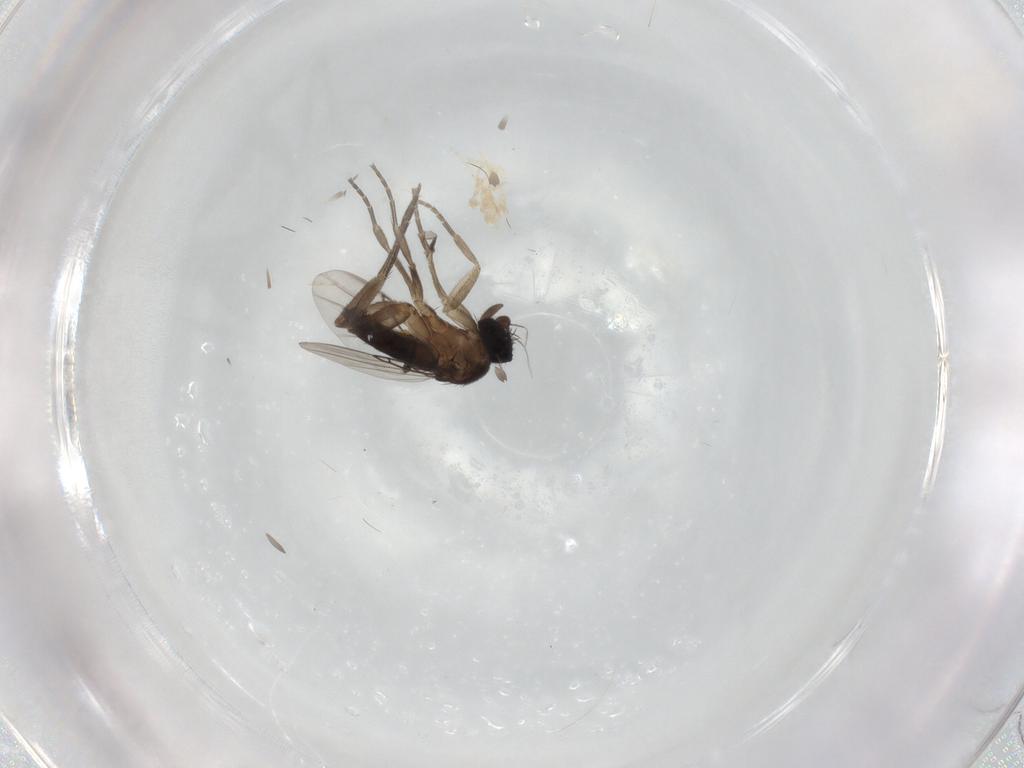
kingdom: Animalia
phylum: Arthropoda
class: Insecta
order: Diptera
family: Phoridae
